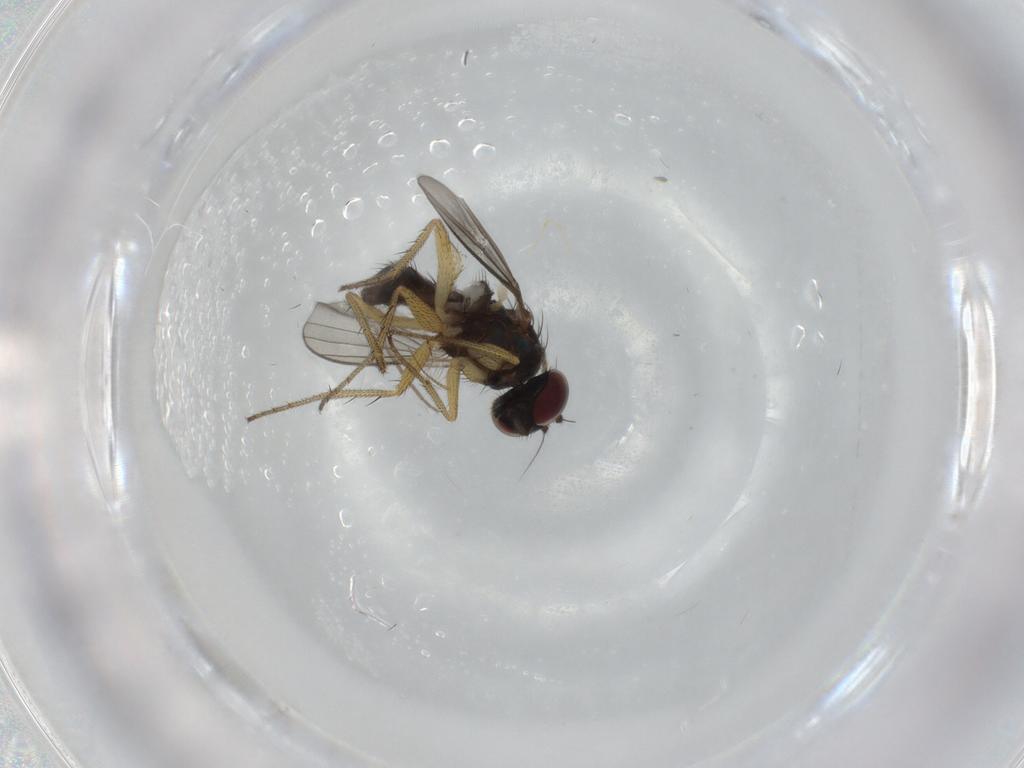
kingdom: Animalia
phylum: Arthropoda
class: Insecta
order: Diptera
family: Dolichopodidae
